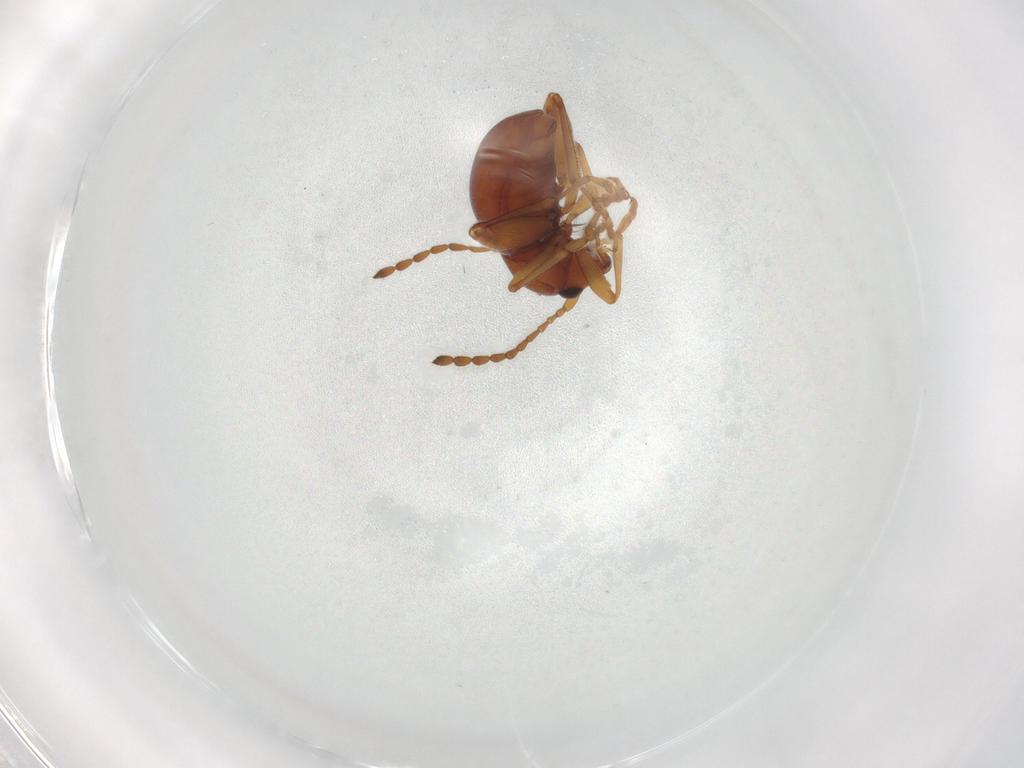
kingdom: Animalia
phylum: Arthropoda
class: Insecta
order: Coleoptera
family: Chrysomelidae
